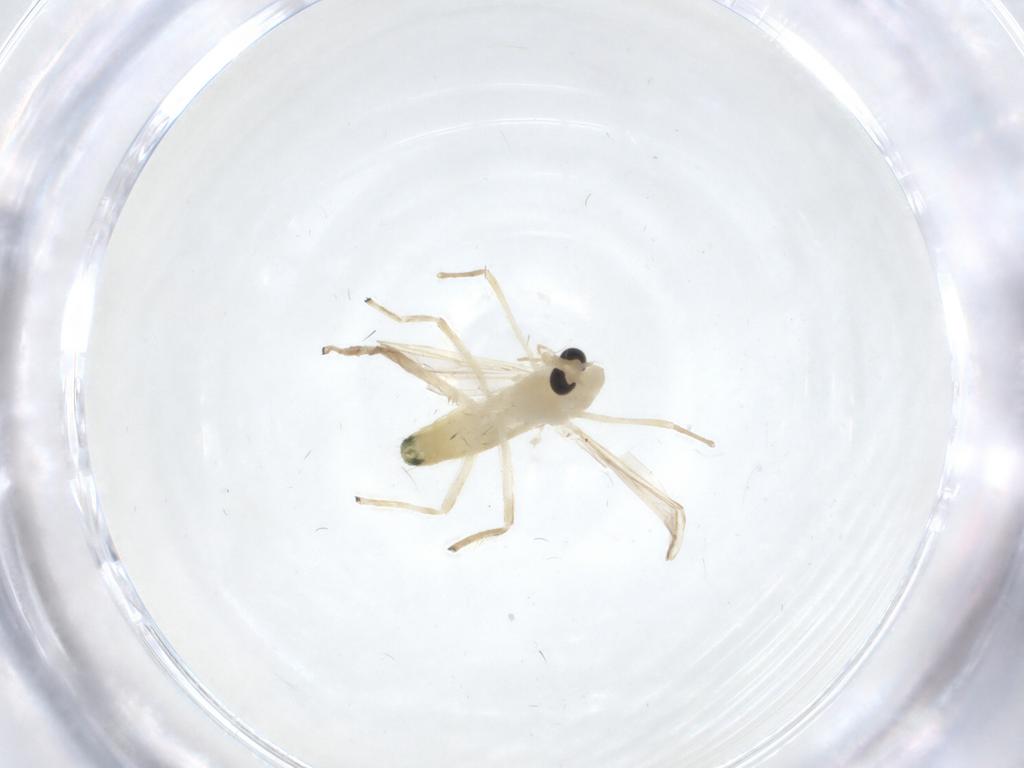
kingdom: Animalia
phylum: Arthropoda
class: Insecta
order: Diptera
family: Chironomidae
